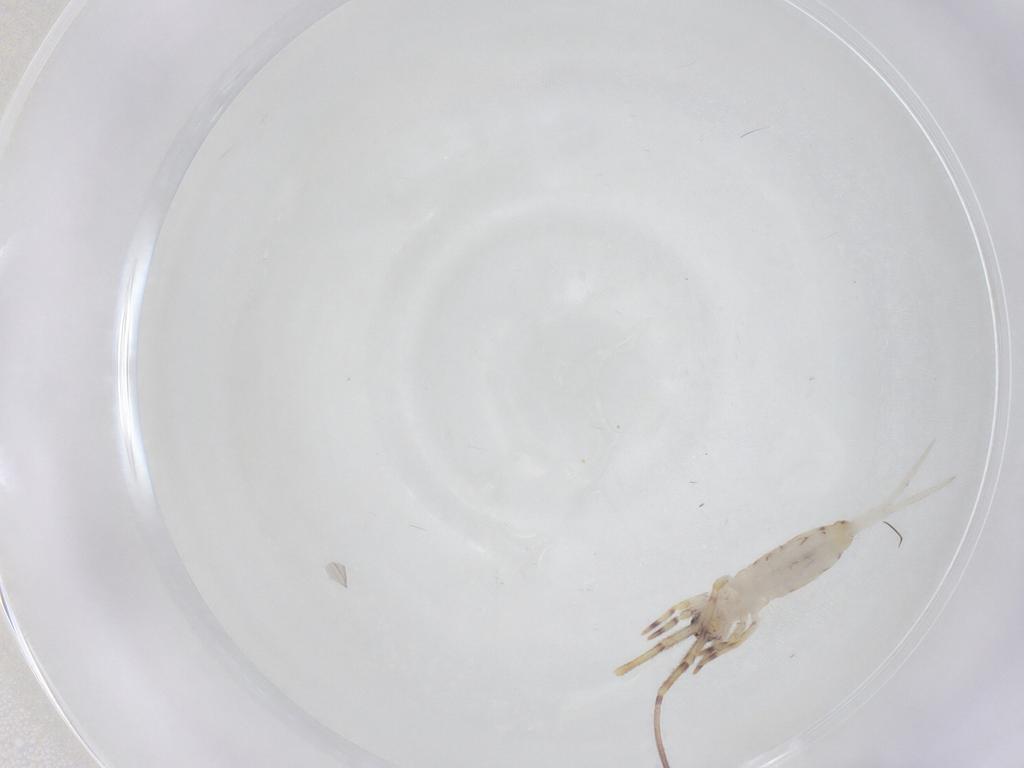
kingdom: Animalia
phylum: Arthropoda
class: Collembola
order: Entomobryomorpha
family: Entomobryidae
